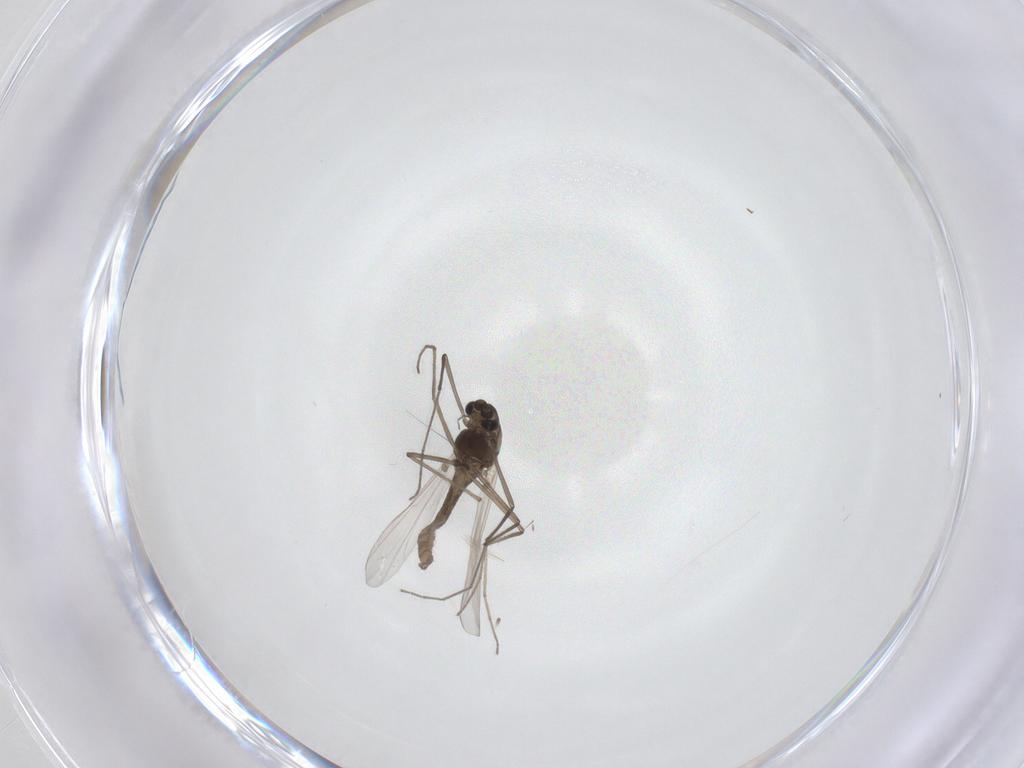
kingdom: Animalia
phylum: Arthropoda
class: Insecta
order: Diptera
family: Chironomidae
